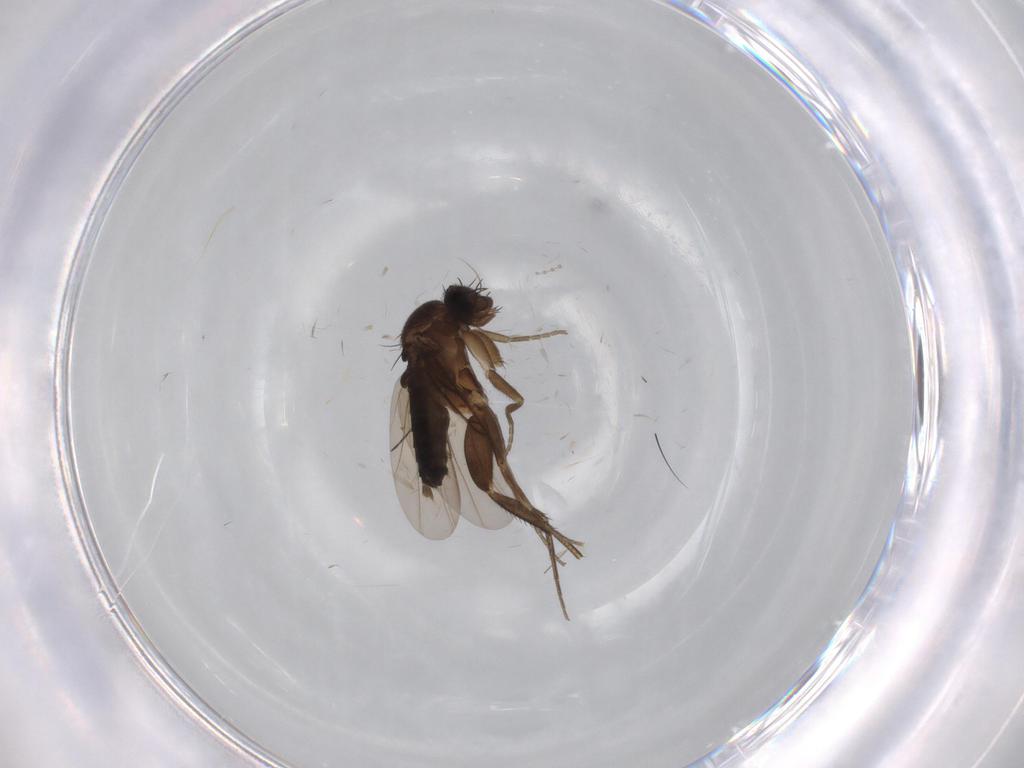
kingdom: Animalia
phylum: Arthropoda
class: Insecta
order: Diptera
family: Phoridae
